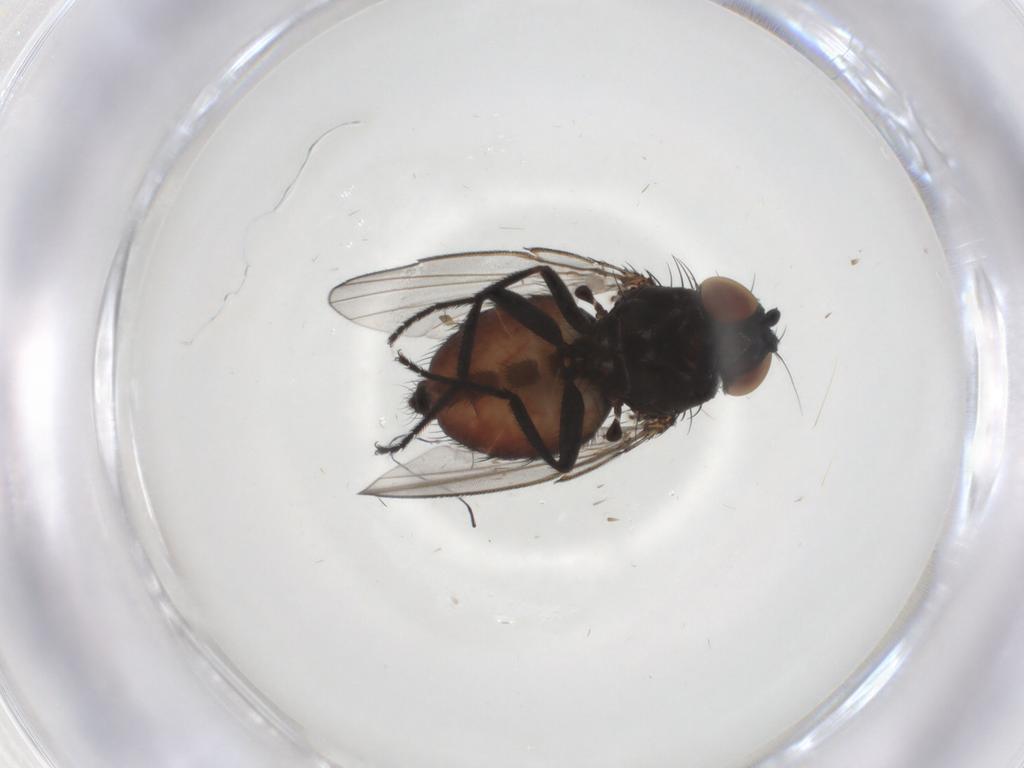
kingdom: Animalia
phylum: Arthropoda
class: Insecta
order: Diptera
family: Milichiidae
